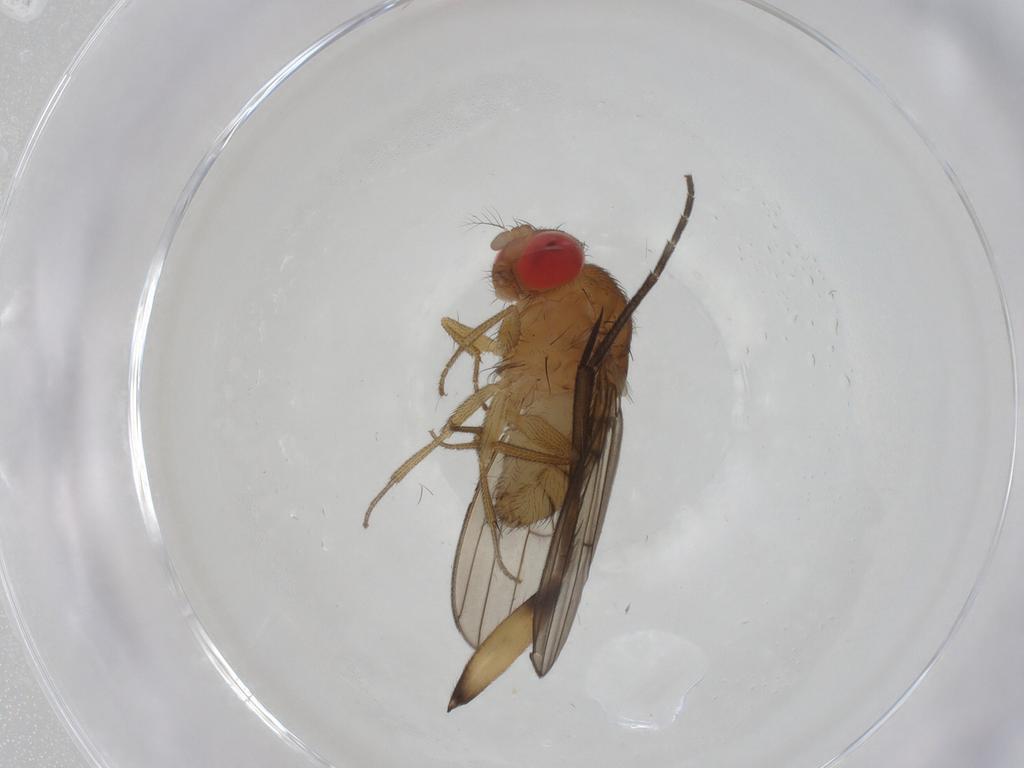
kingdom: Animalia
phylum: Arthropoda
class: Insecta
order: Diptera
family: Drosophilidae
